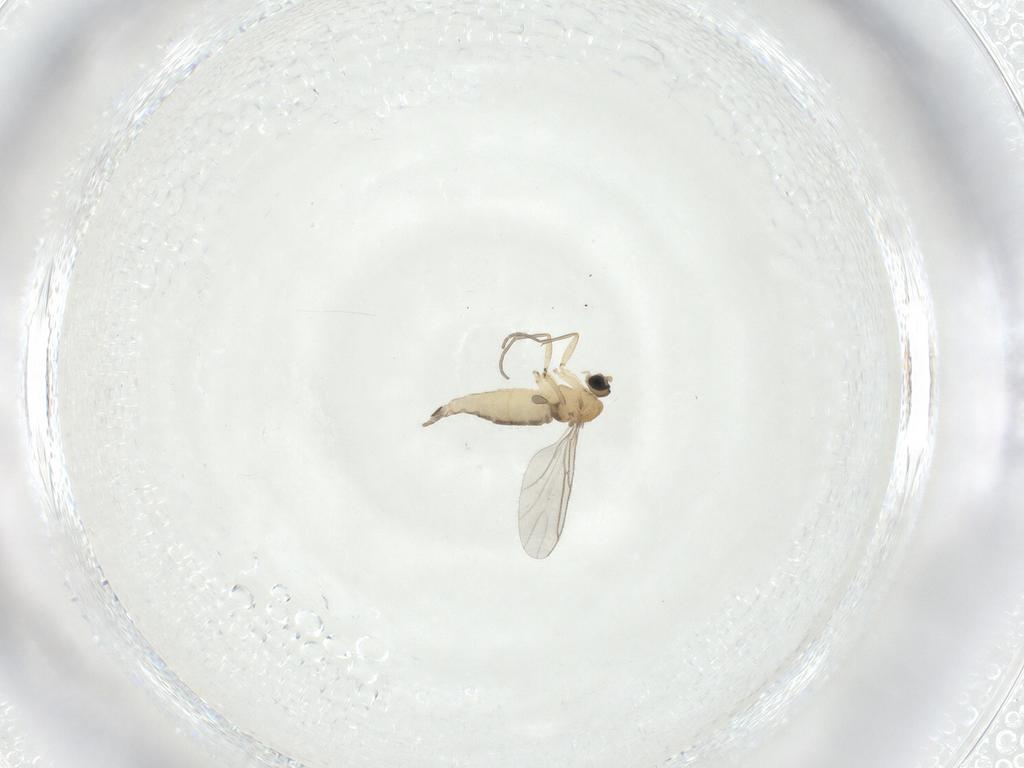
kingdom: Animalia
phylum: Arthropoda
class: Insecta
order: Diptera
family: Sciaridae
